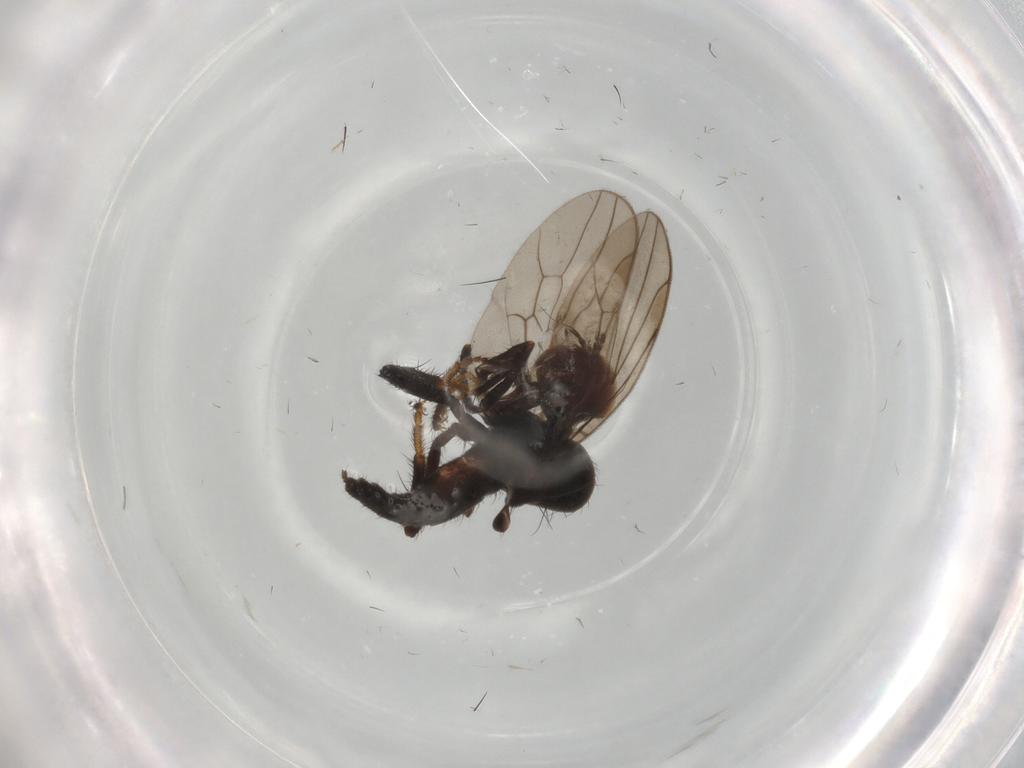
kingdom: Animalia
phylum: Arthropoda
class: Insecta
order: Diptera
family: Hybotidae
